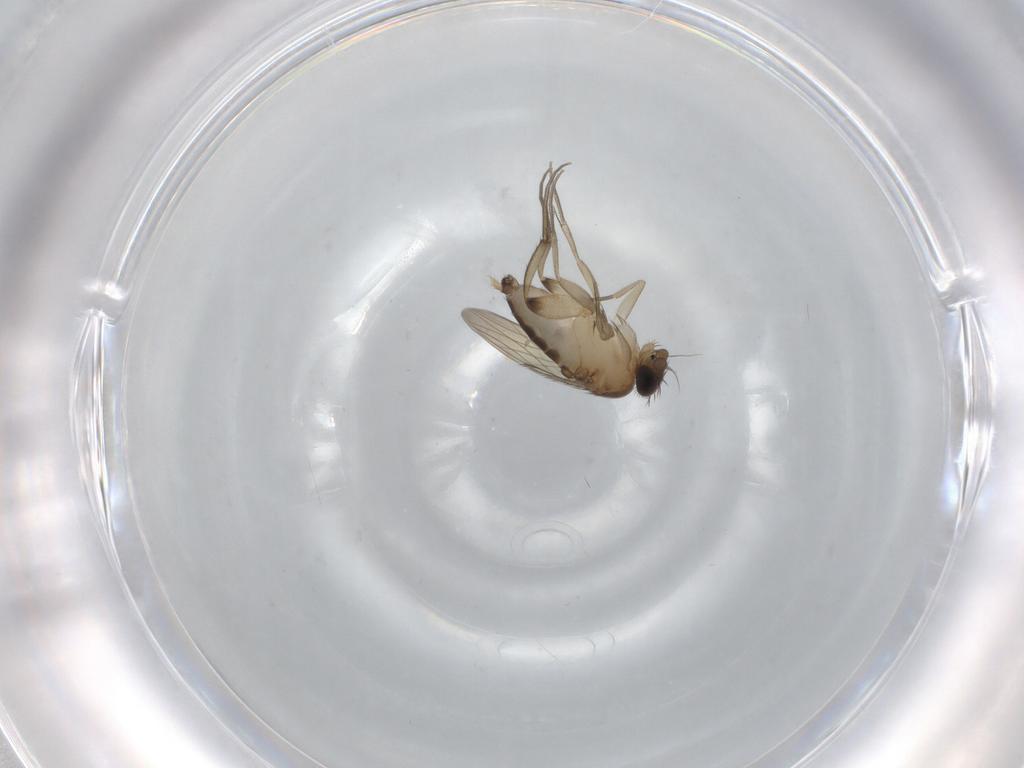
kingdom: Animalia
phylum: Arthropoda
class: Insecta
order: Diptera
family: Phoridae
